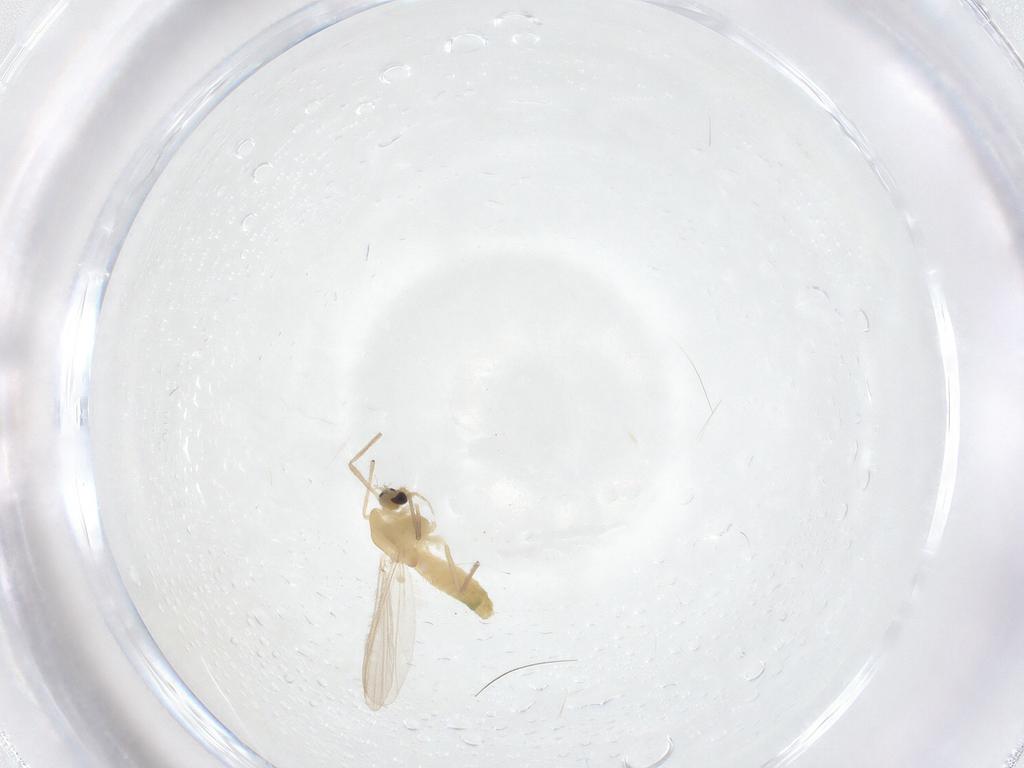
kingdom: Animalia
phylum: Arthropoda
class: Insecta
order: Diptera
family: Chironomidae
